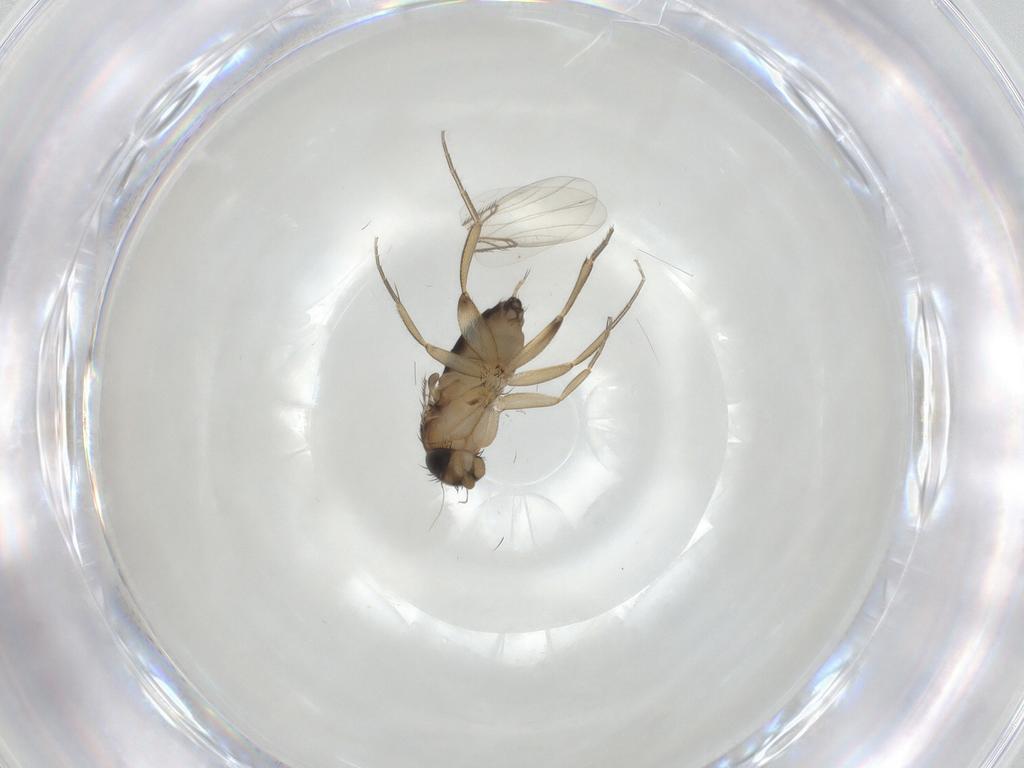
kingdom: Animalia
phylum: Arthropoda
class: Insecta
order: Diptera
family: Phoridae
